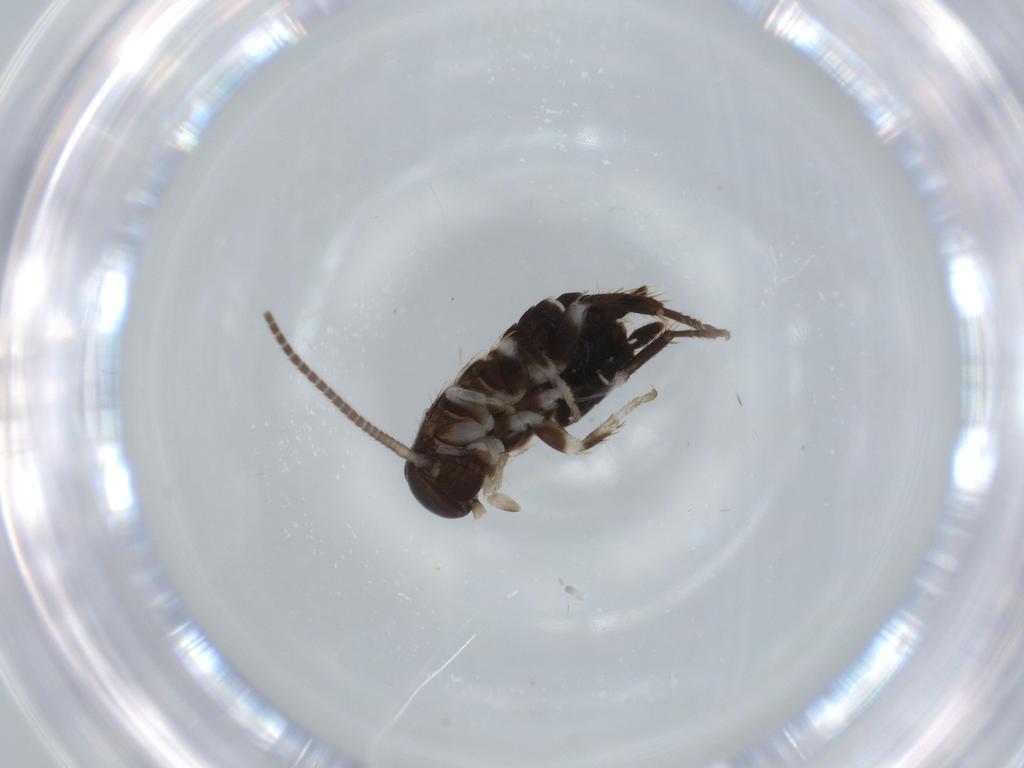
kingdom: Animalia
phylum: Arthropoda
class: Insecta
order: Blattodea
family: Ectobiidae
